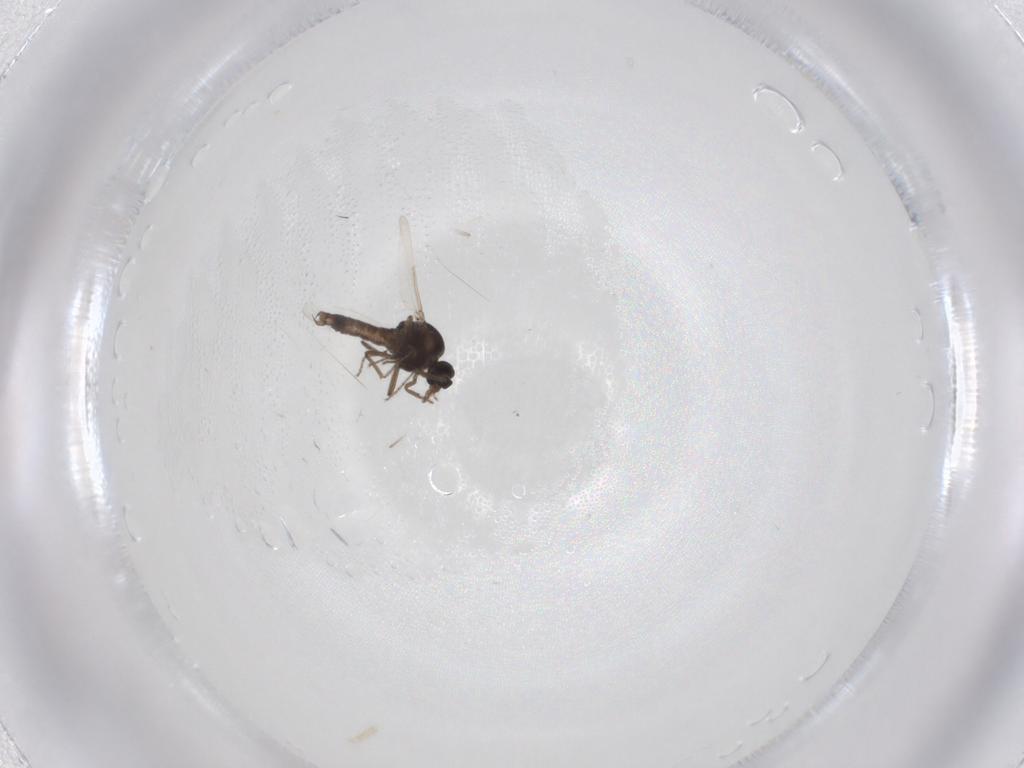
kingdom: Animalia
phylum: Arthropoda
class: Insecta
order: Diptera
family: Ceratopogonidae
